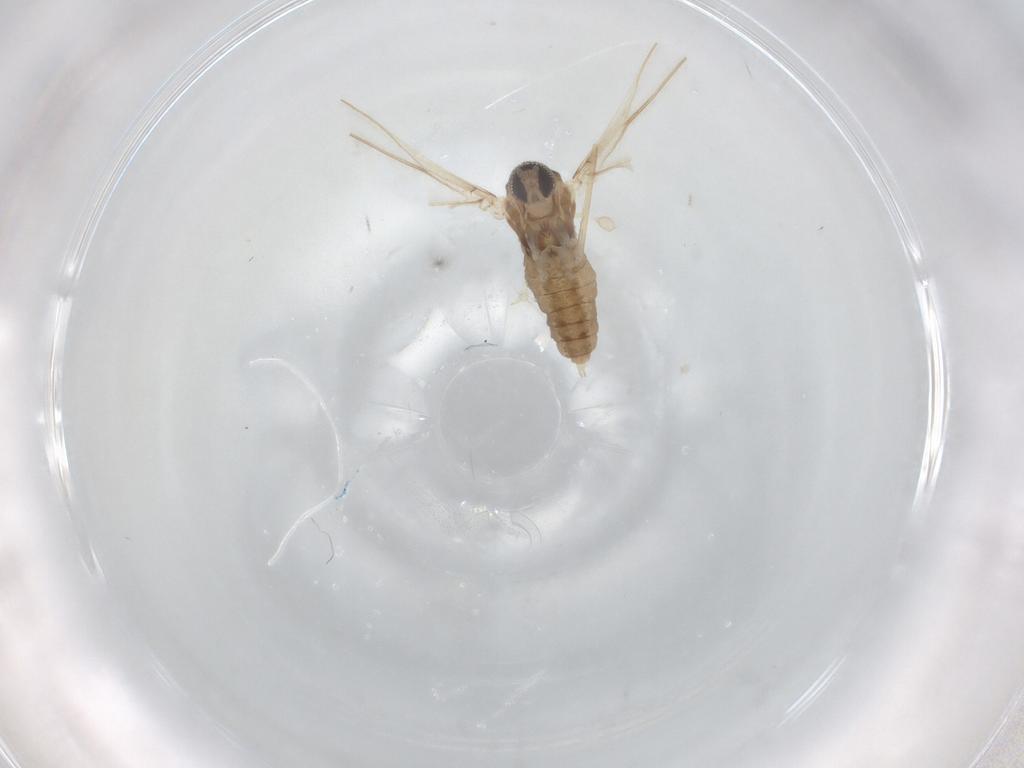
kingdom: Animalia
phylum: Arthropoda
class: Insecta
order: Diptera
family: Cecidomyiidae
